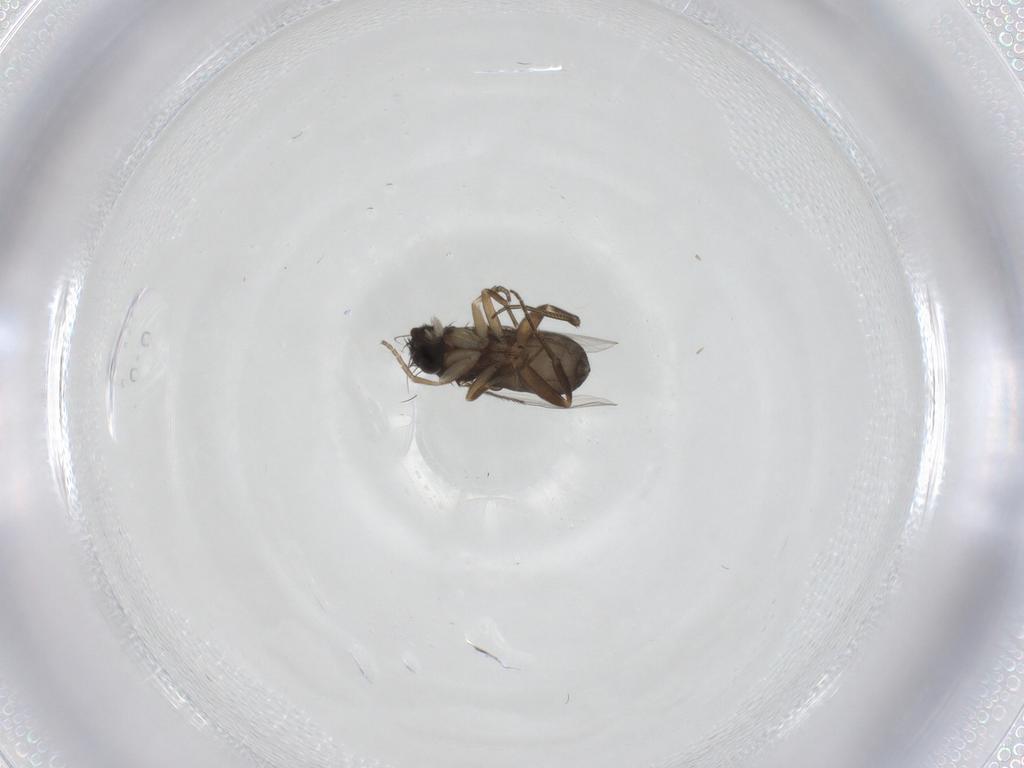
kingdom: Animalia
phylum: Arthropoda
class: Insecta
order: Diptera
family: Phoridae
